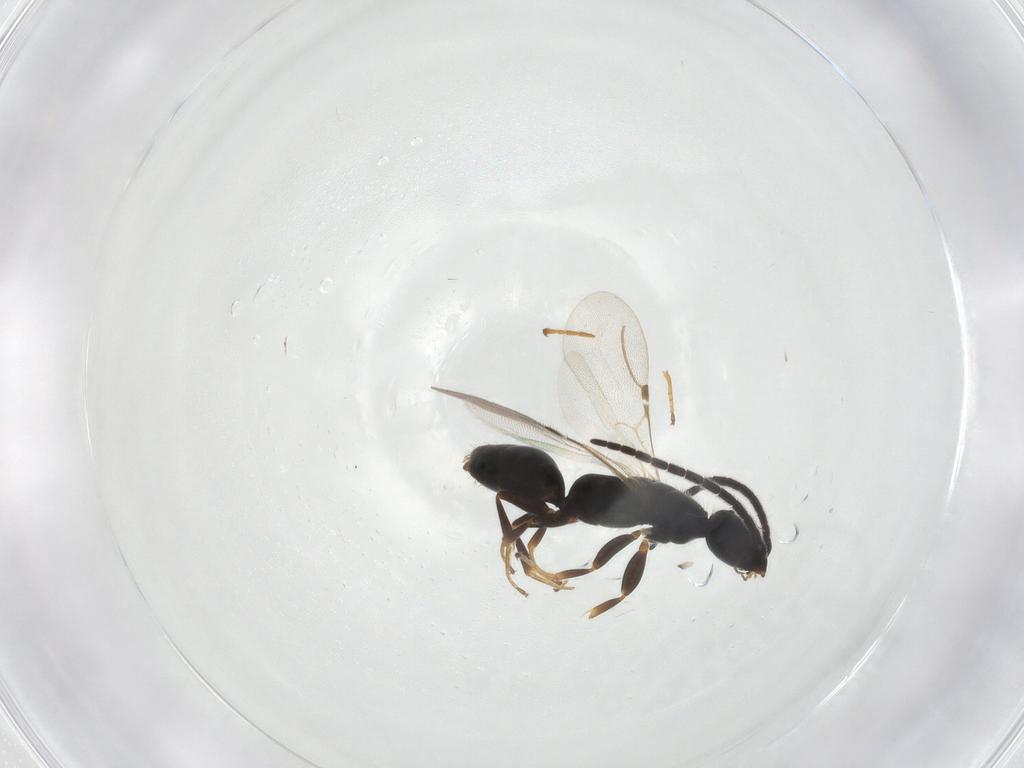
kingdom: Animalia
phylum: Arthropoda
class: Insecta
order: Hymenoptera
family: Bethylidae
